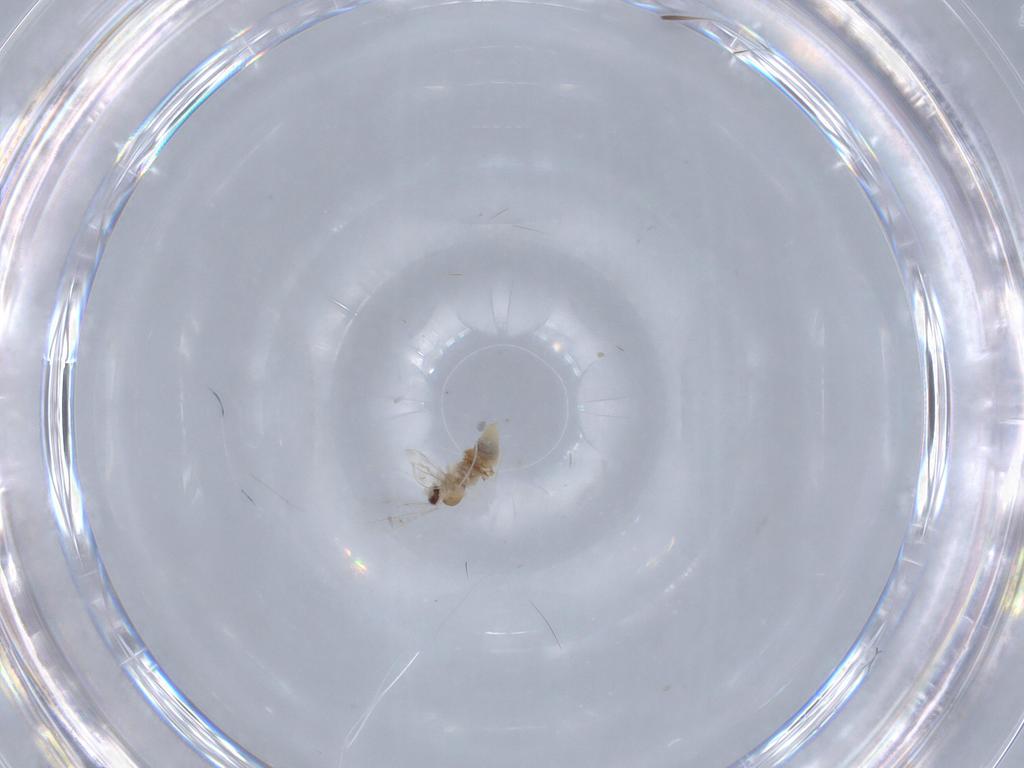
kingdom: Animalia
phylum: Arthropoda
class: Insecta
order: Diptera
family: Cecidomyiidae
